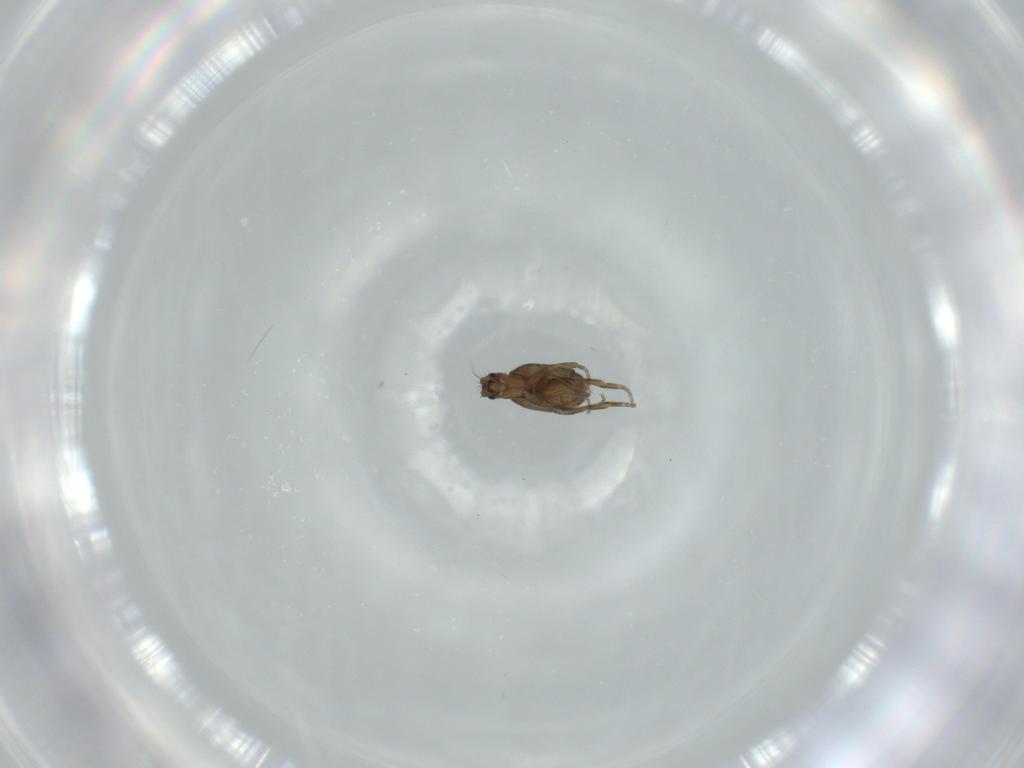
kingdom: Animalia
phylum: Arthropoda
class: Insecta
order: Diptera
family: Phoridae
